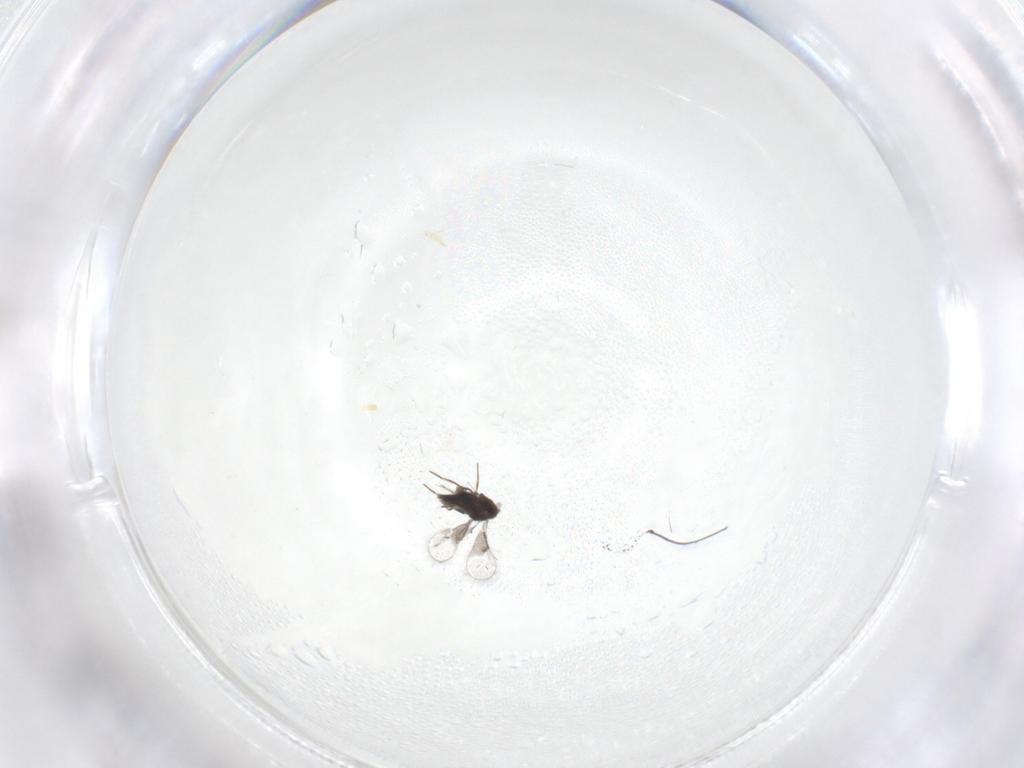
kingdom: Animalia
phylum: Arthropoda
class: Insecta
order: Hymenoptera
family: Trichogrammatidae
